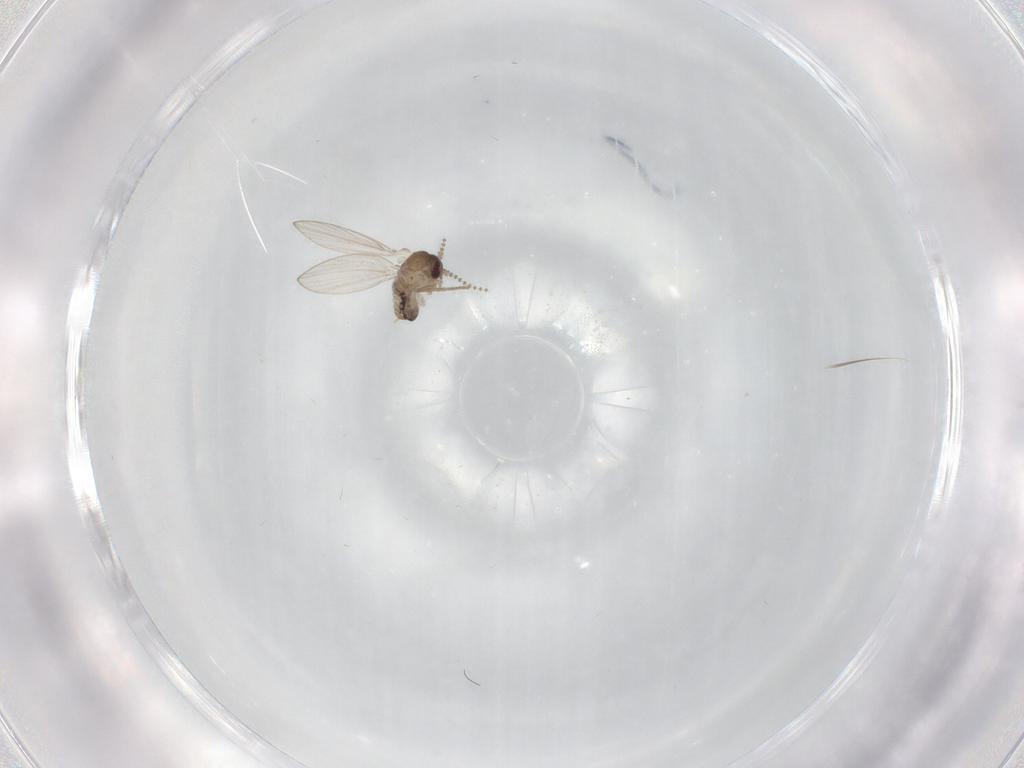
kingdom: Animalia
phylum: Arthropoda
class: Insecta
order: Diptera
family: Psychodidae
